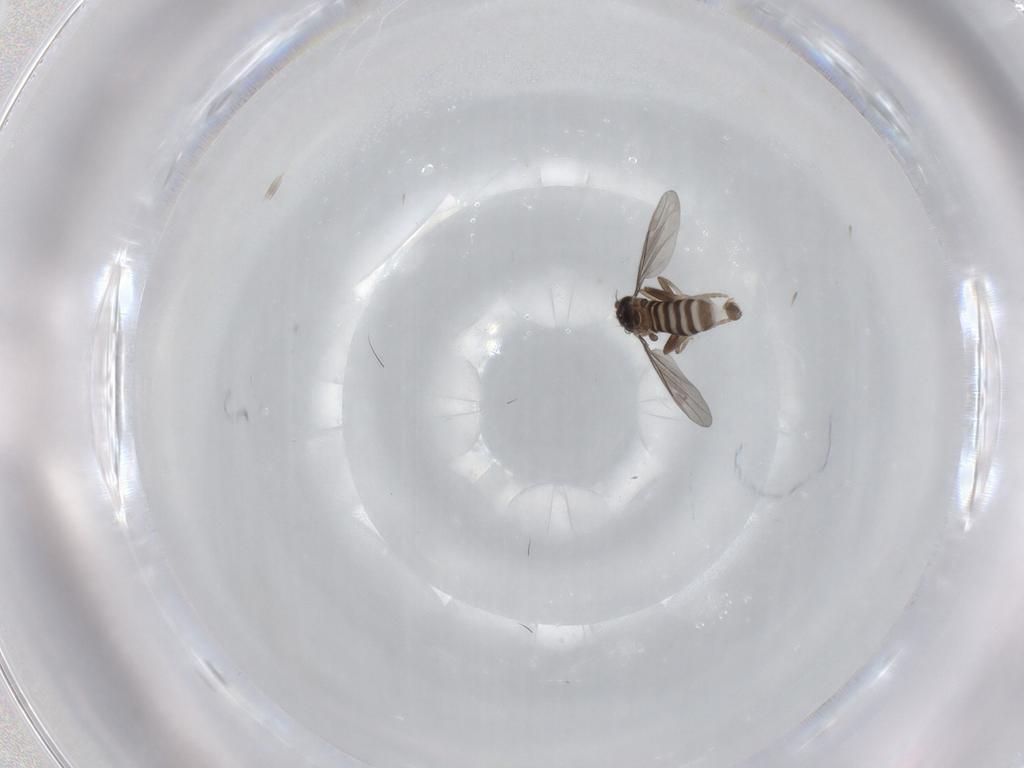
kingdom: Animalia
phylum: Arthropoda
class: Insecta
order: Diptera
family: Phoridae
